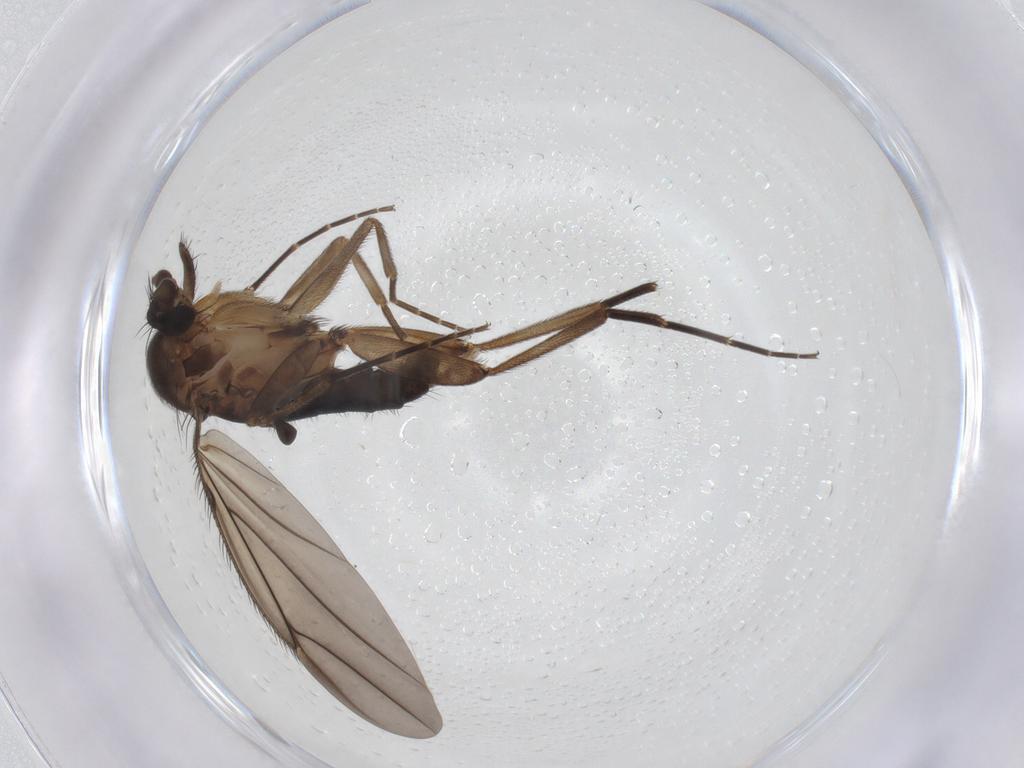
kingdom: Animalia
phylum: Arthropoda
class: Insecta
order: Diptera
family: Phoridae
